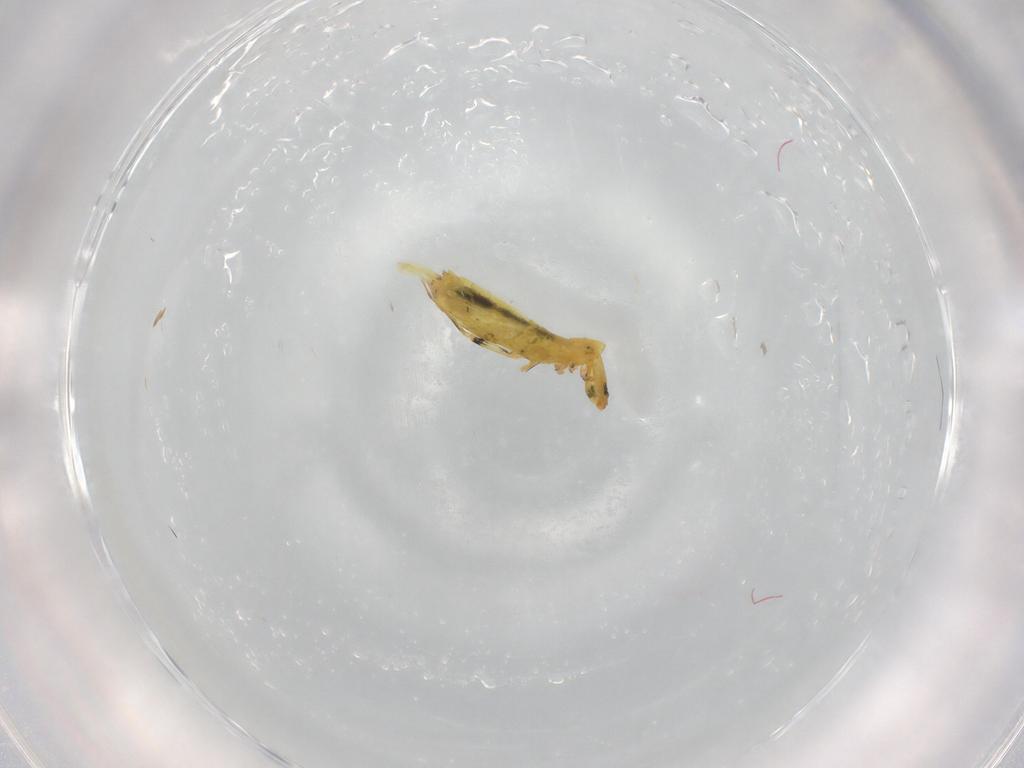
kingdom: Animalia
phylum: Arthropoda
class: Collembola
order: Entomobryomorpha
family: Entomobryidae
